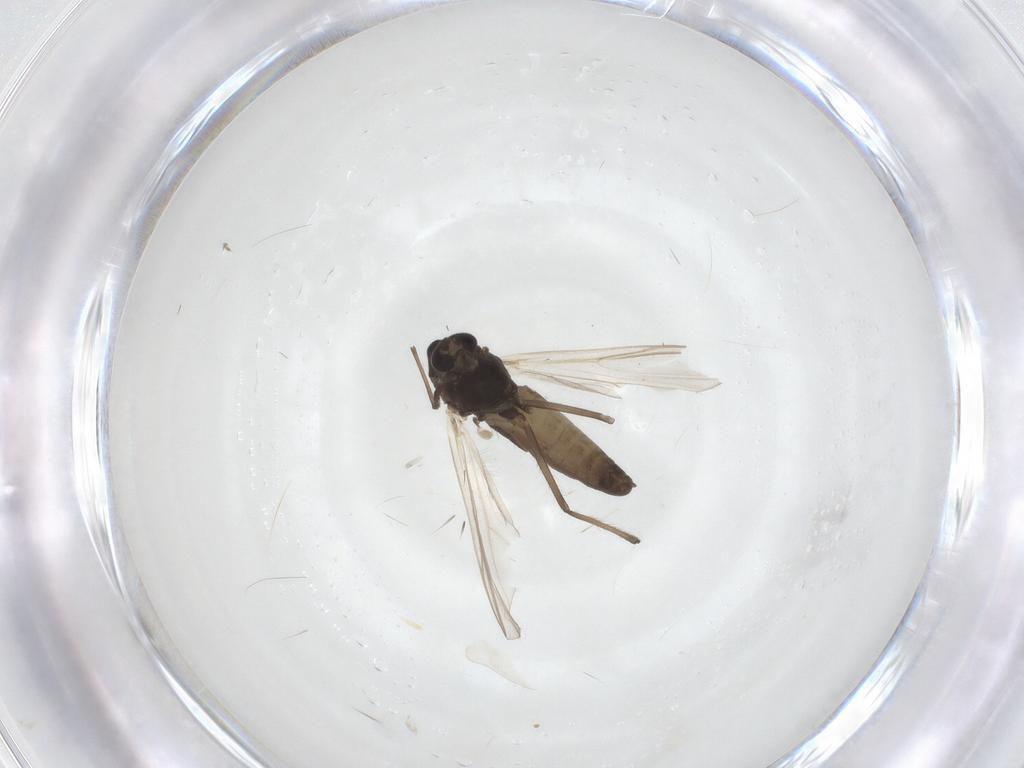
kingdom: Animalia
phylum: Arthropoda
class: Insecta
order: Diptera
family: Chironomidae
